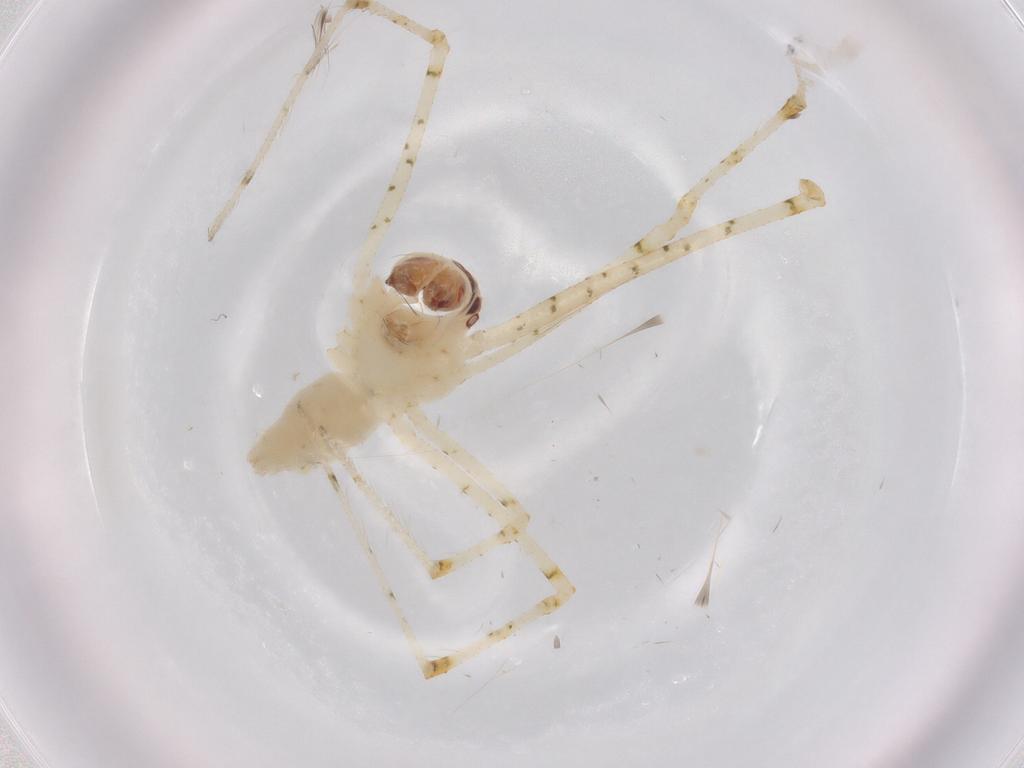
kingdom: Animalia
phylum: Arthropoda
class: Arachnida
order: Araneae
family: Theridiidae
